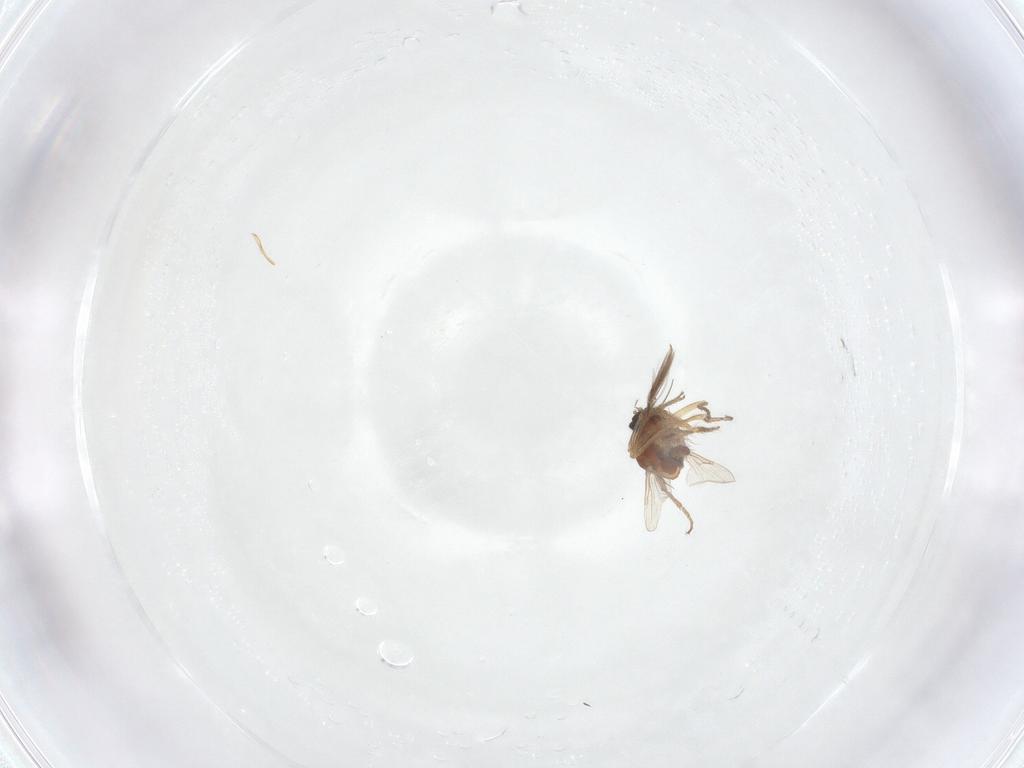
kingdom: Animalia
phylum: Arthropoda
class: Insecta
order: Diptera
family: Ceratopogonidae
